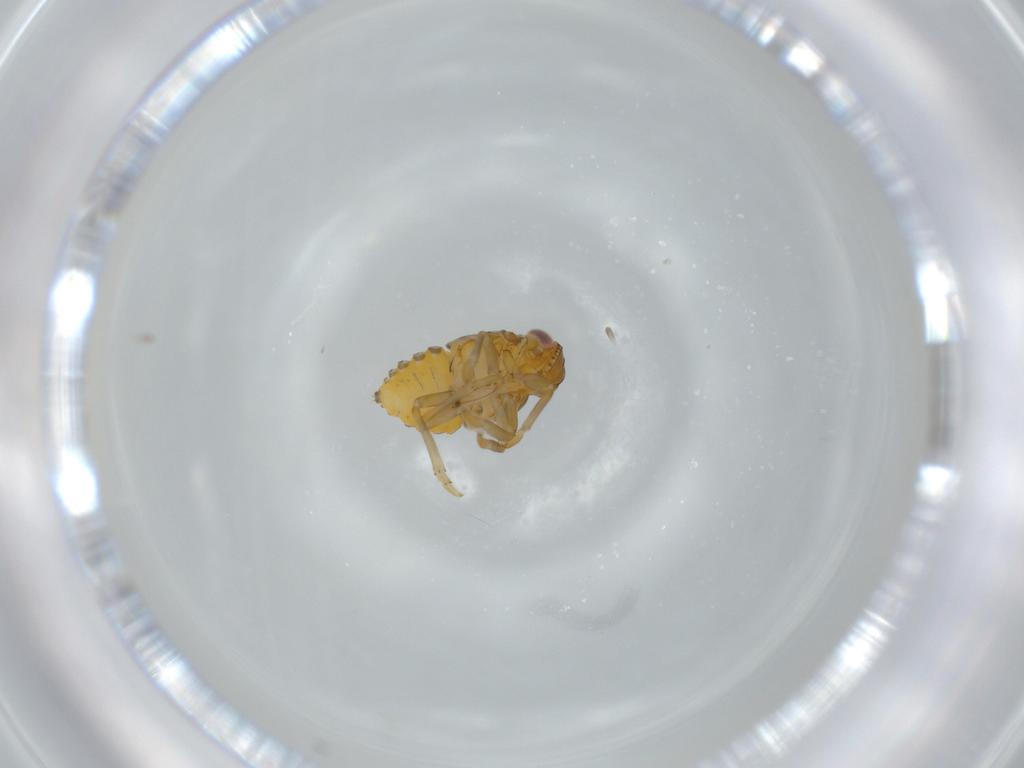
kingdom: Animalia
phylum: Arthropoda
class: Insecta
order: Hemiptera
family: Issidae
